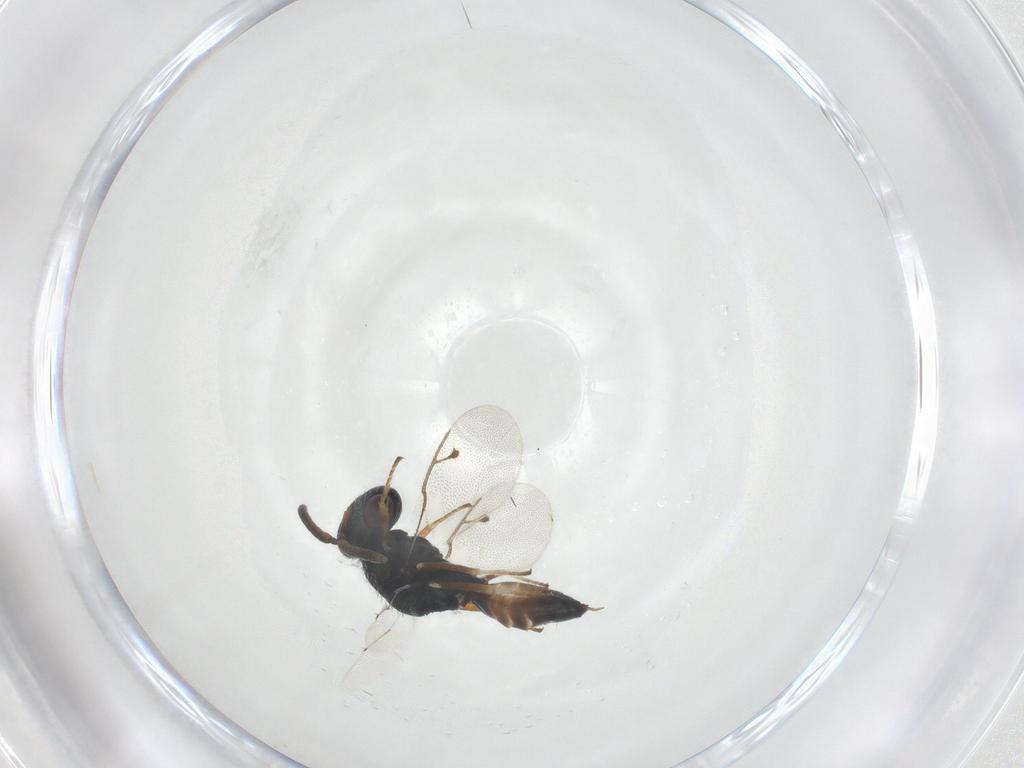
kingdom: Animalia
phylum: Arthropoda
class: Insecta
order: Hymenoptera
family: Pteromalidae
